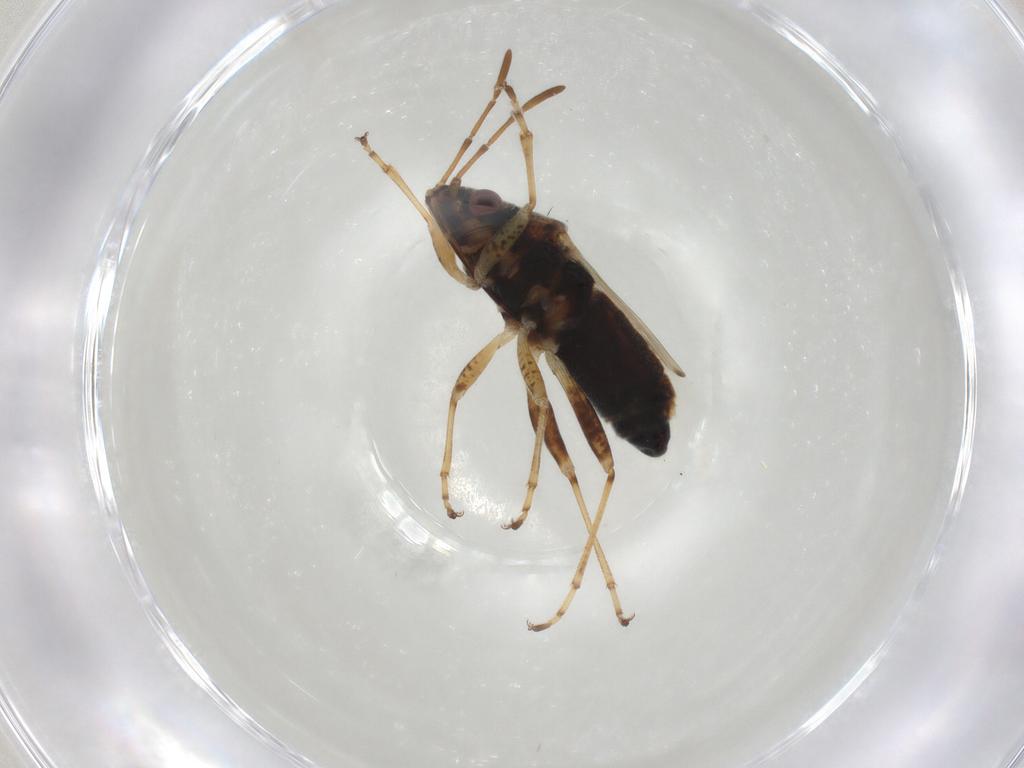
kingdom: Animalia
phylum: Arthropoda
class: Insecta
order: Hemiptera
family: Lygaeidae
